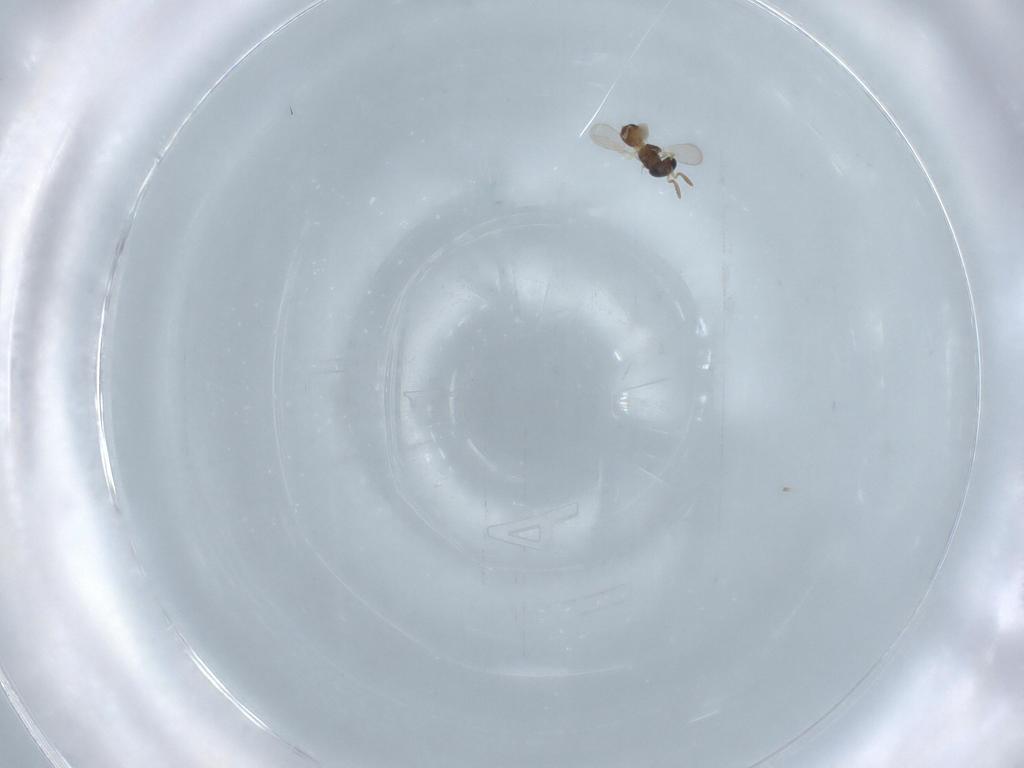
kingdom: Animalia
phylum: Arthropoda
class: Insecta
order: Hymenoptera
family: Scelionidae
